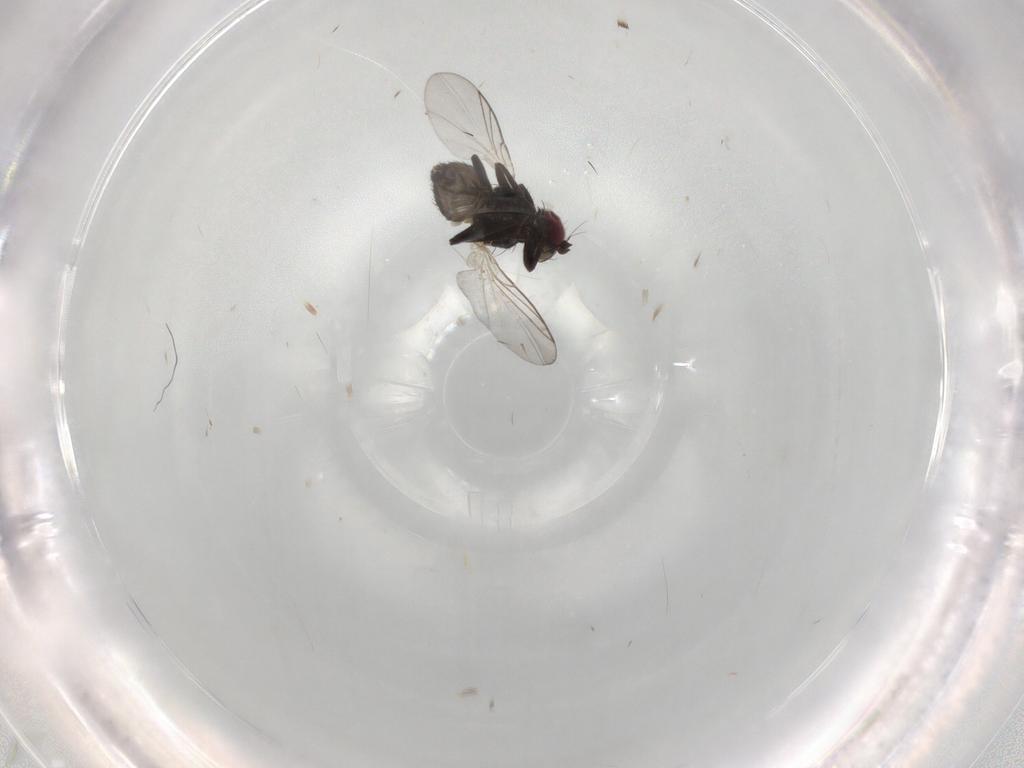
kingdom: Animalia
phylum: Arthropoda
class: Insecta
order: Diptera
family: Agromyzidae
